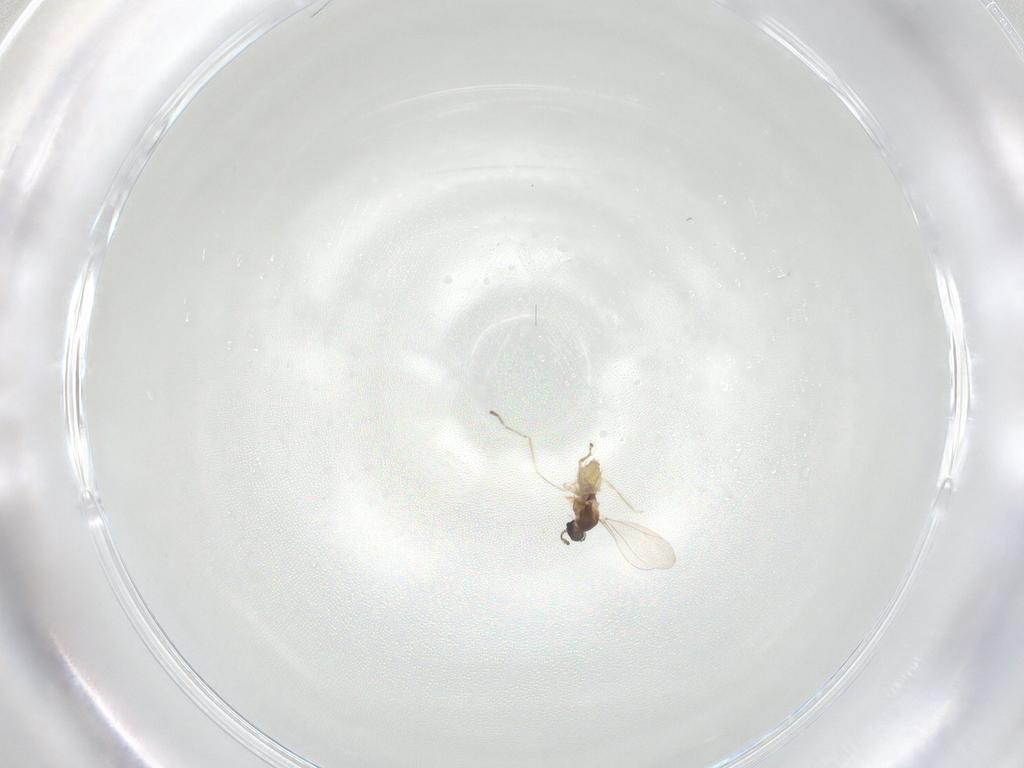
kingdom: Animalia
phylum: Arthropoda
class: Insecta
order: Diptera
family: Cecidomyiidae
